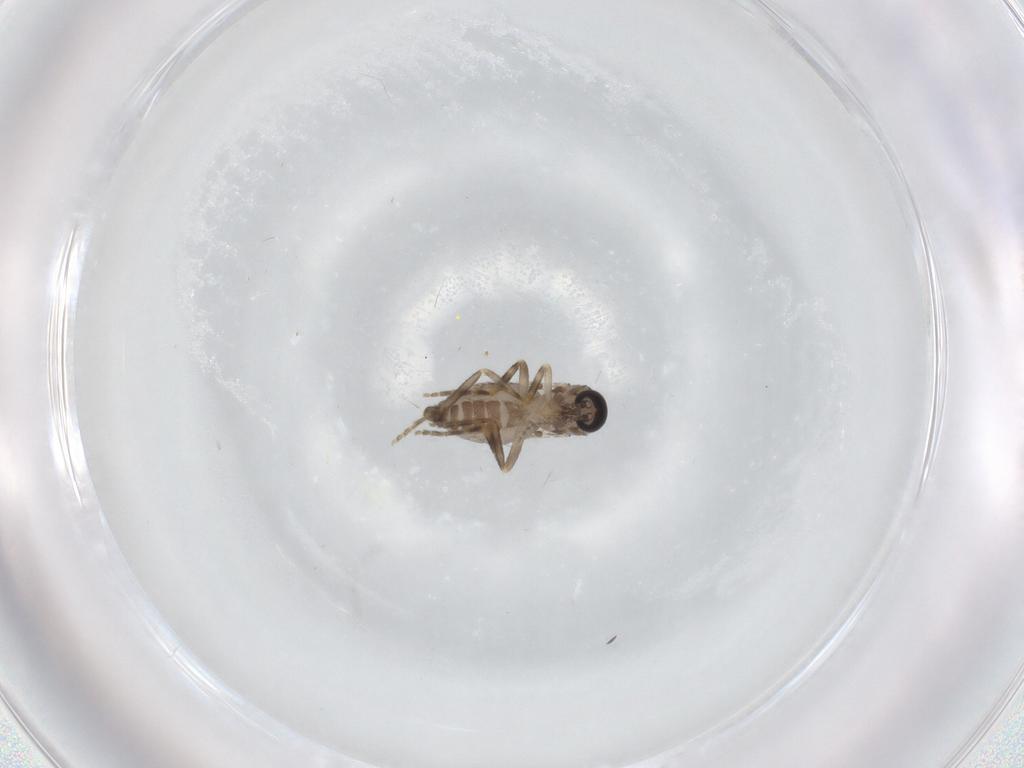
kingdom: Animalia
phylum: Arthropoda
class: Insecta
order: Diptera
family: Ceratopogonidae
